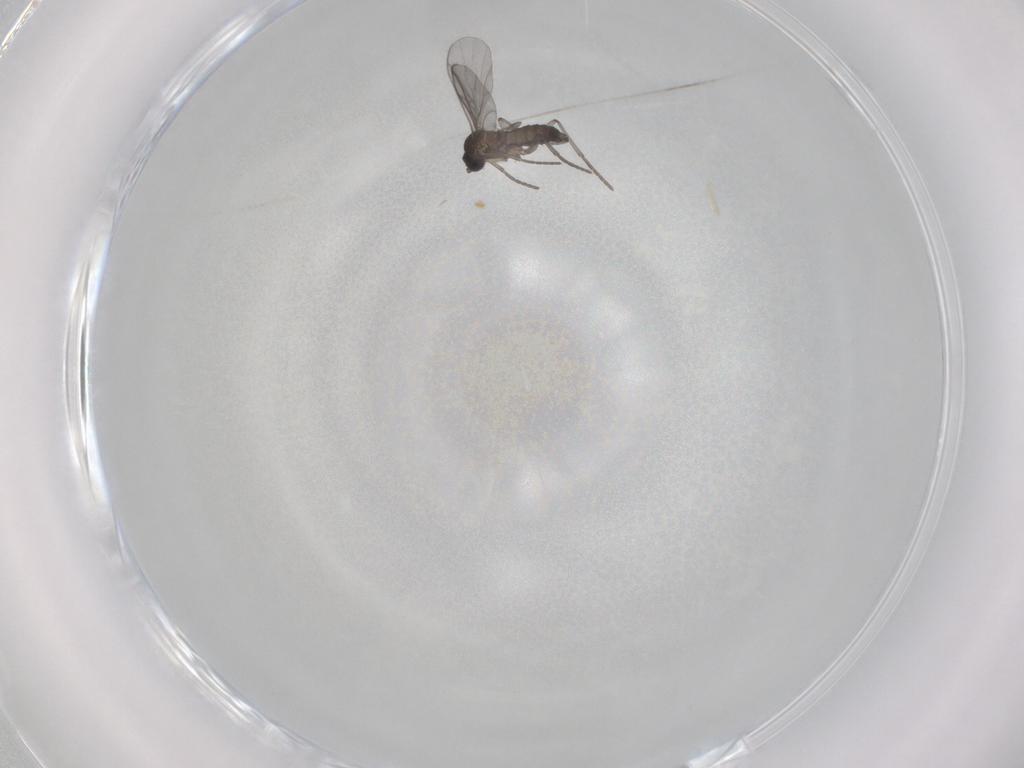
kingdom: Animalia
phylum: Arthropoda
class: Insecta
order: Diptera
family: Sciaridae
